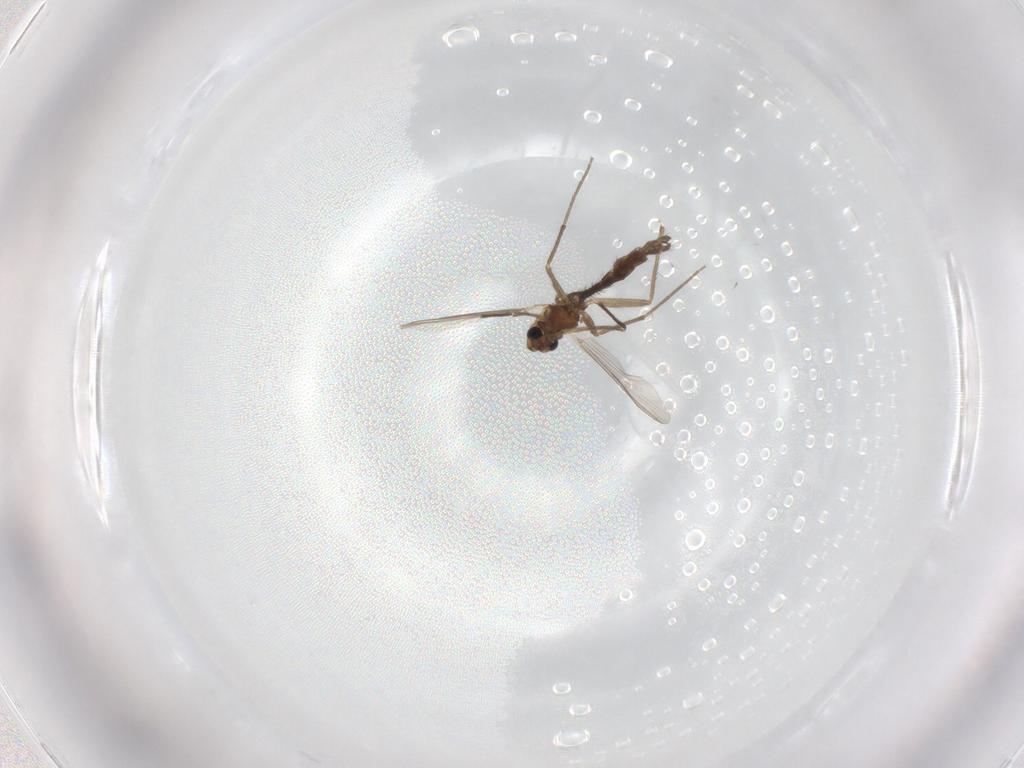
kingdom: Animalia
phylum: Arthropoda
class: Insecta
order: Diptera
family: Chironomidae
